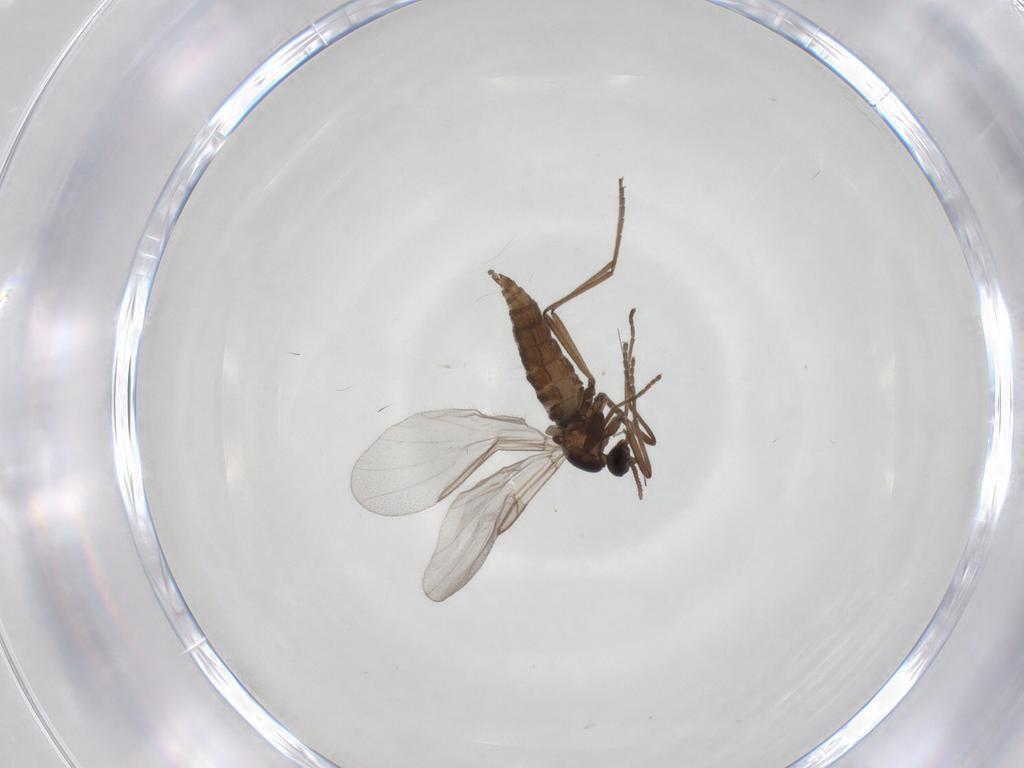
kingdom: Animalia
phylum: Arthropoda
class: Insecta
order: Diptera
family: Cecidomyiidae
